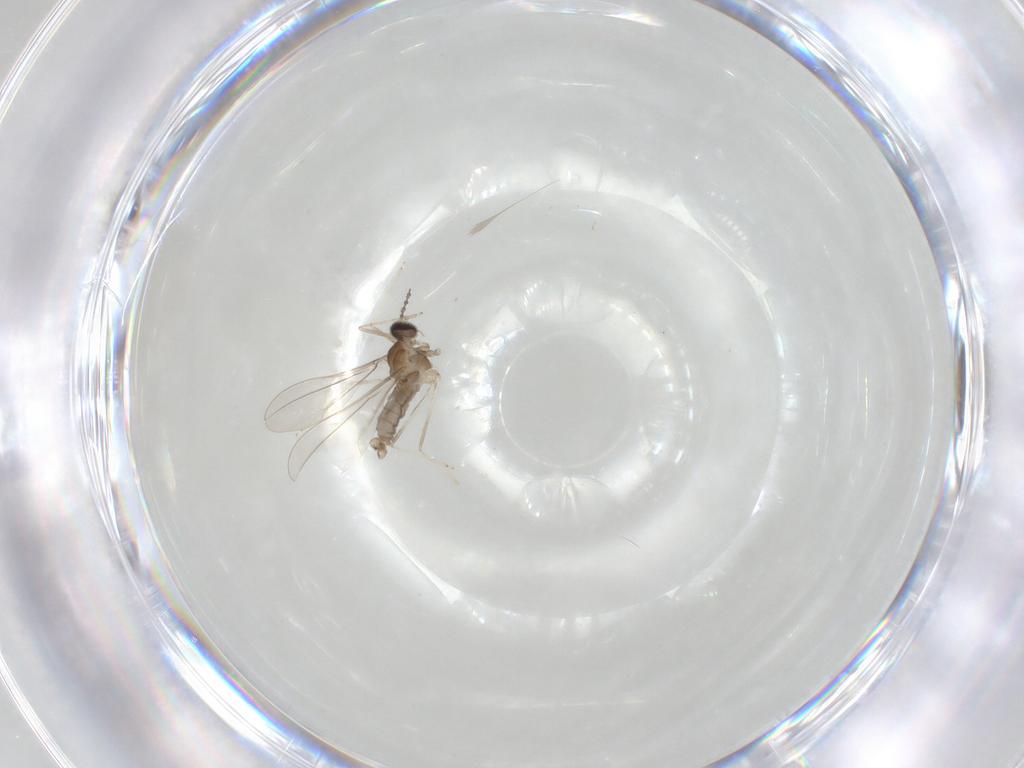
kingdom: Animalia
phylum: Arthropoda
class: Insecta
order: Diptera
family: Cecidomyiidae
